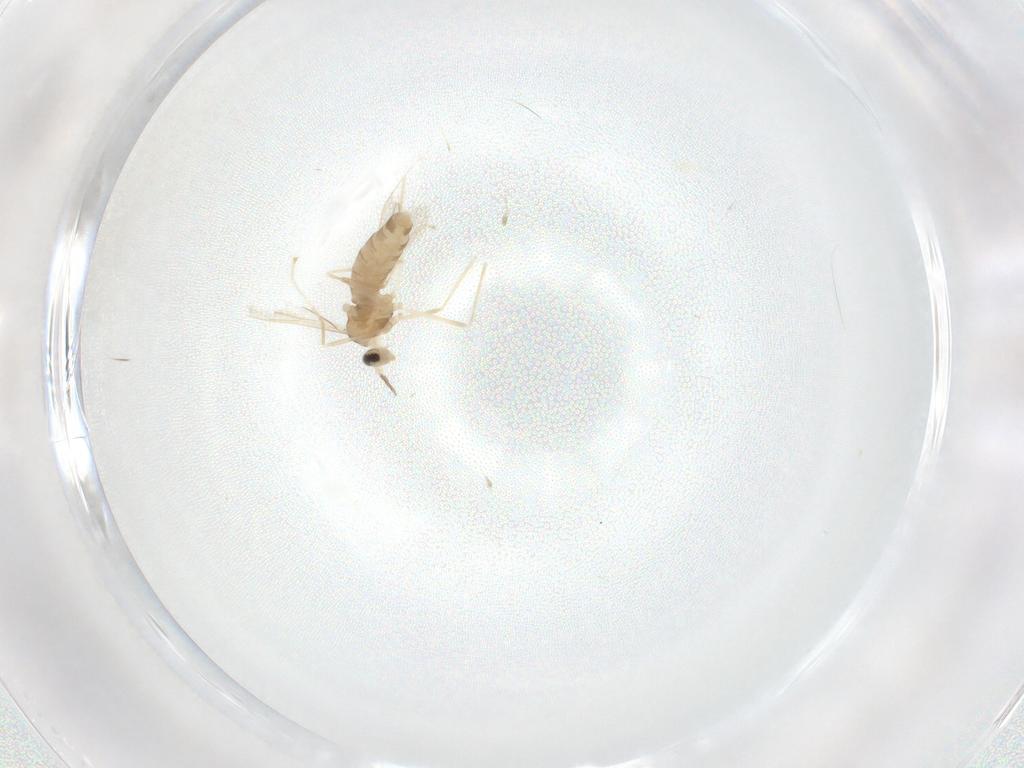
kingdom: Animalia
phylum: Arthropoda
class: Insecta
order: Diptera
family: Cecidomyiidae
